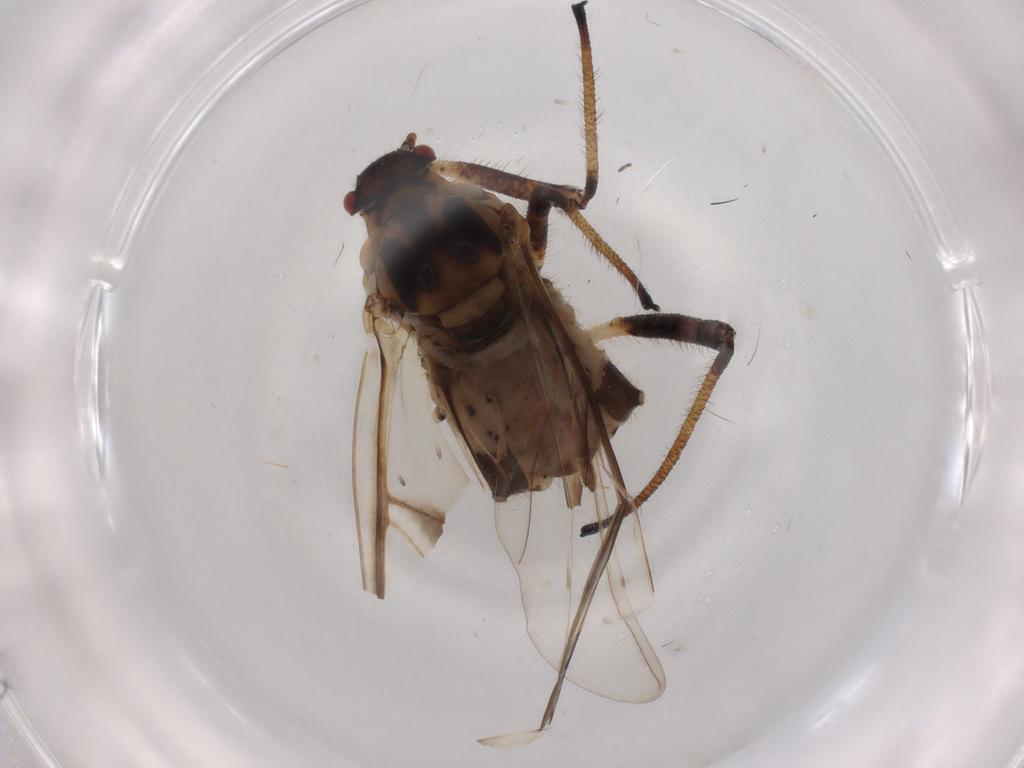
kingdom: Animalia
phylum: Arthropoda
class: Insecta
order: Hemiptera
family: Aphididae
